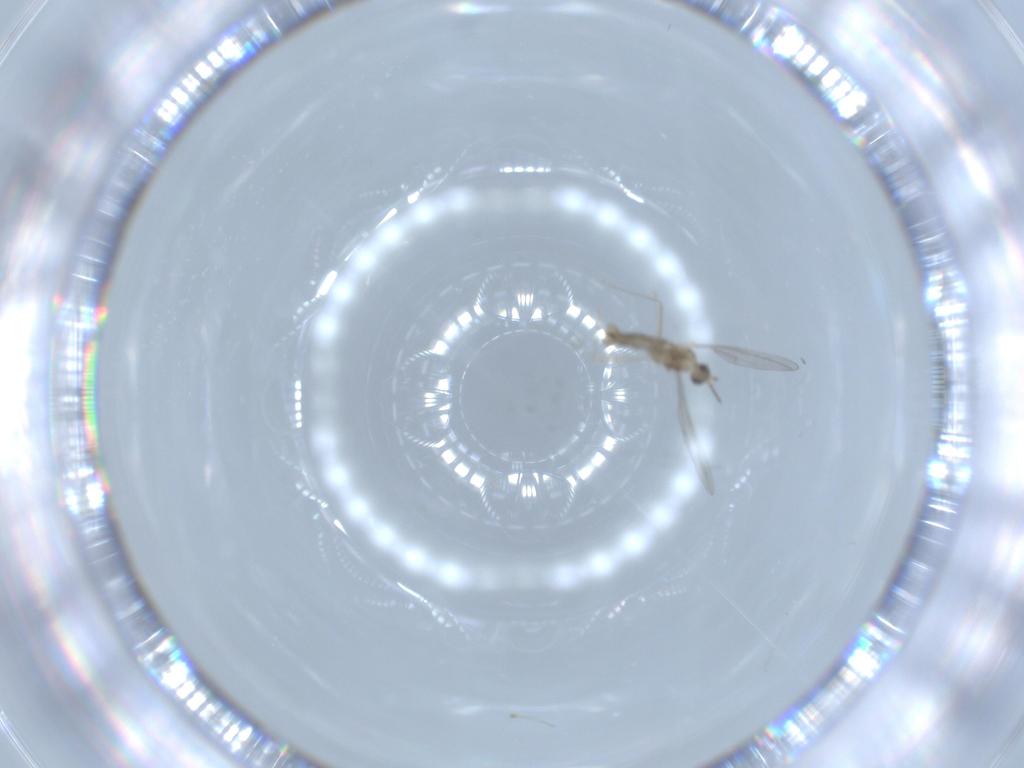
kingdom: Animalia
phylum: Arthropoda
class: Insecta
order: Diptera
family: Cecidomyiidae
